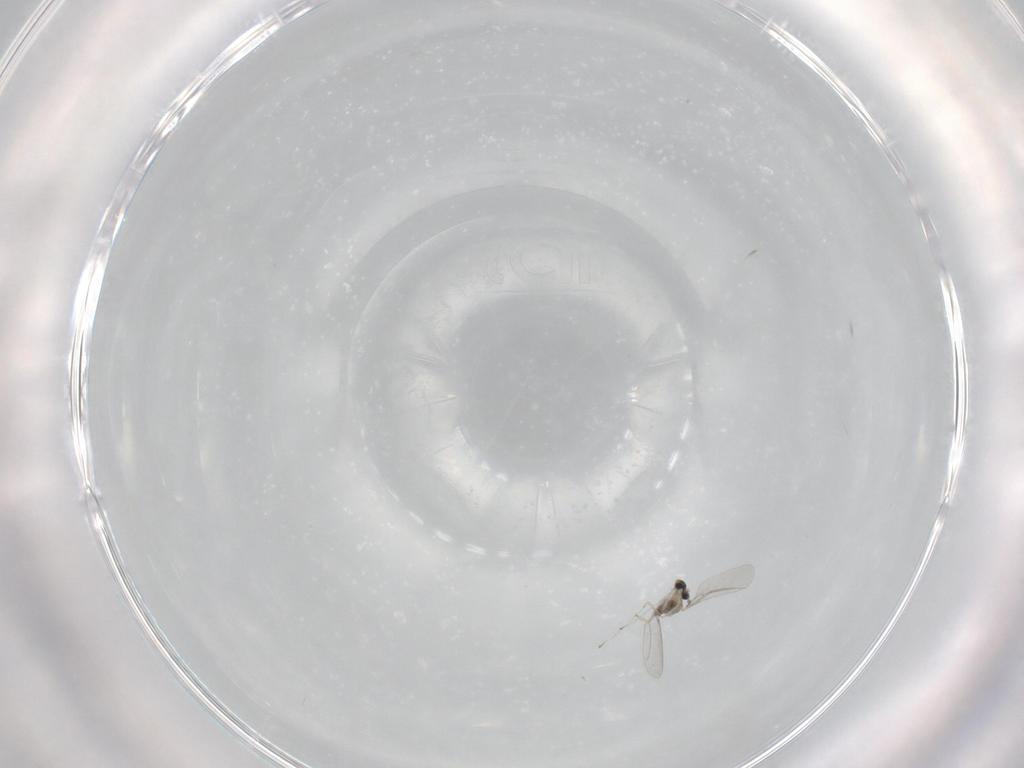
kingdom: Animalia
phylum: Arthropoda
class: Insecta
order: Diptera
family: Cecidomyiidae
